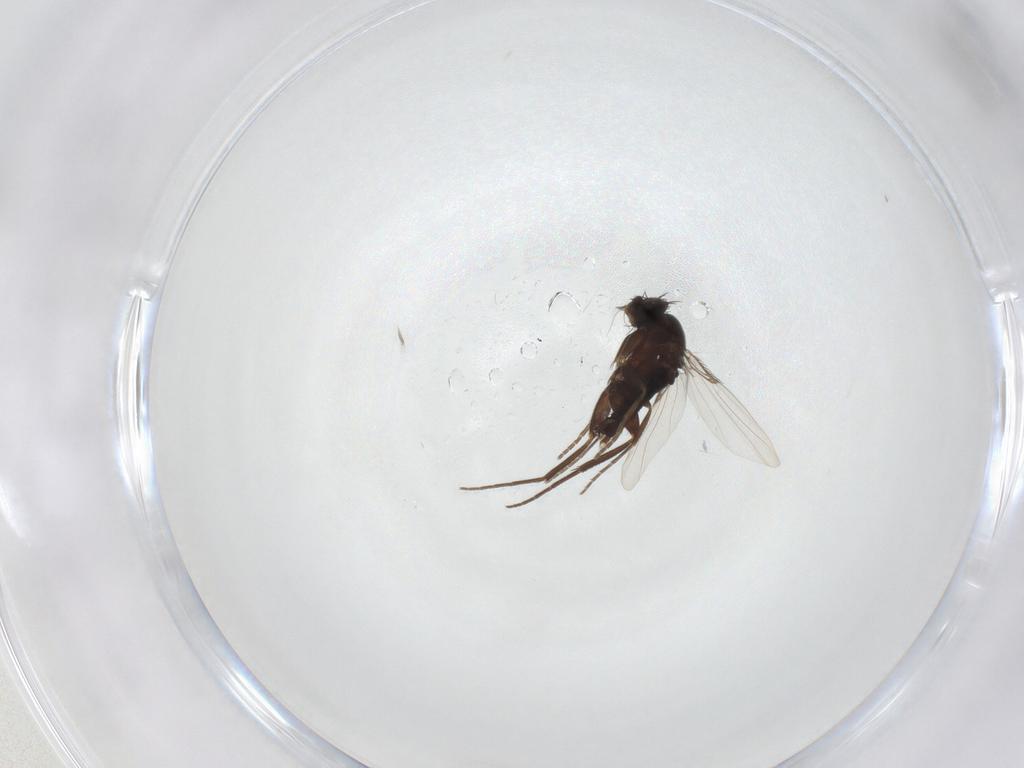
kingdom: Animalia
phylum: Arthropoda
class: Insecta
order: Diptera
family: Phoridae
